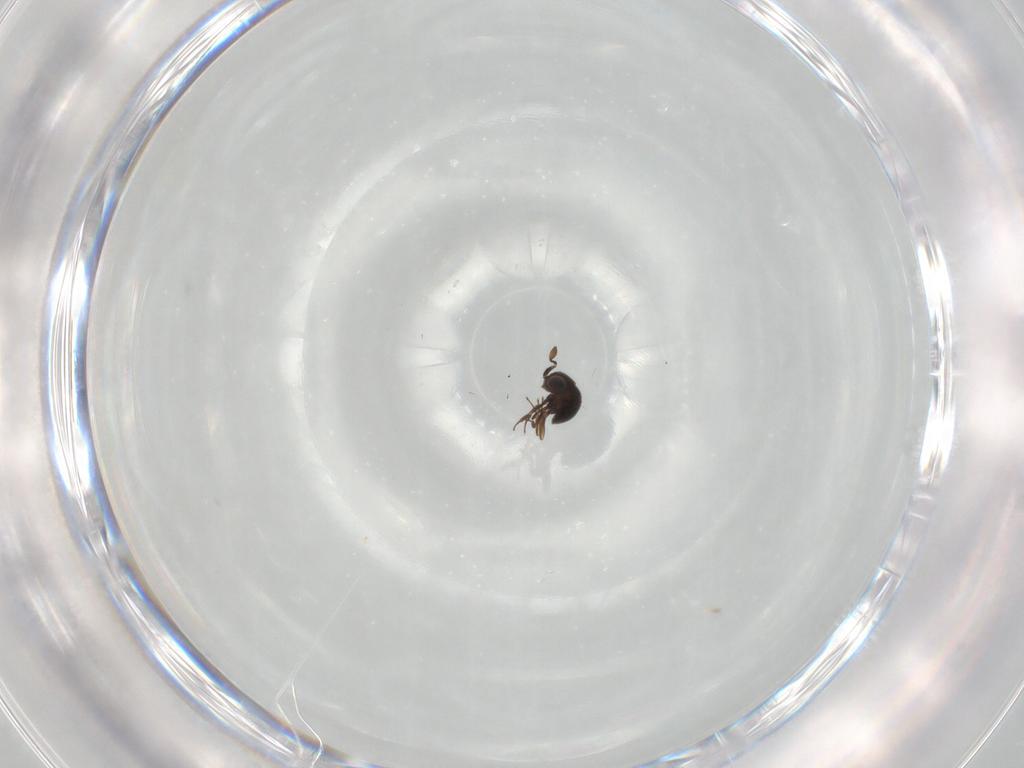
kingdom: Animalia
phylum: Arthropoda
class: Insecta
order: Hymenoptera
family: Scelionidae
